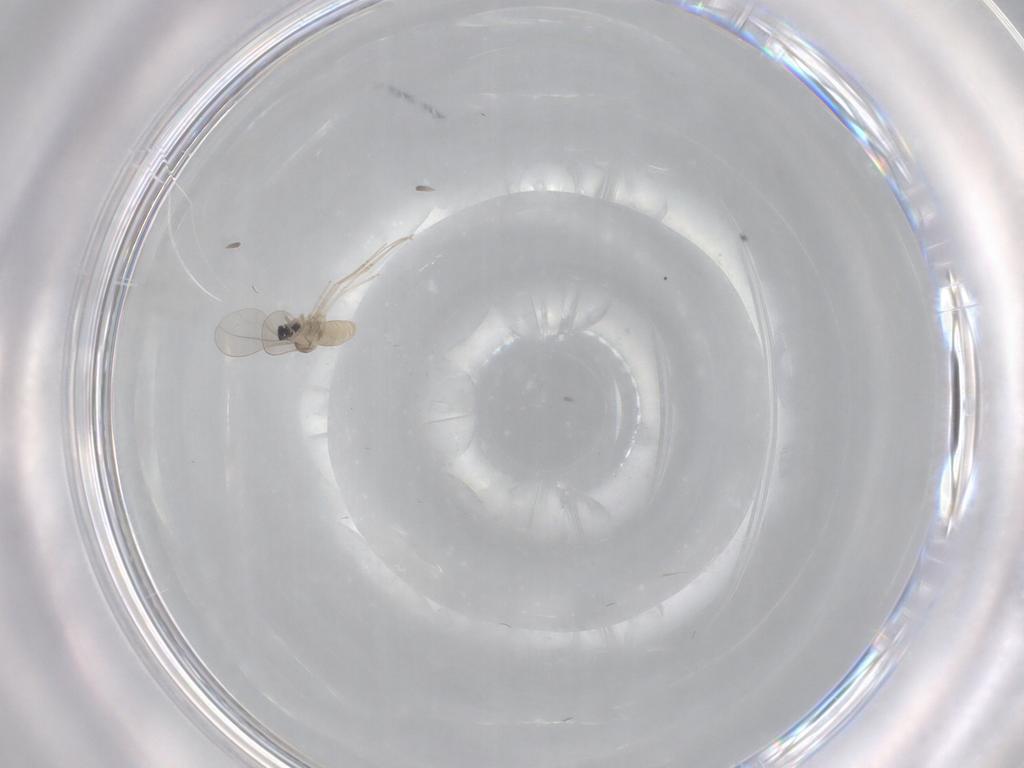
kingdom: Animalia
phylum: Arthropoda
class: Insecta
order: Diptera
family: Cecidomyiidae
